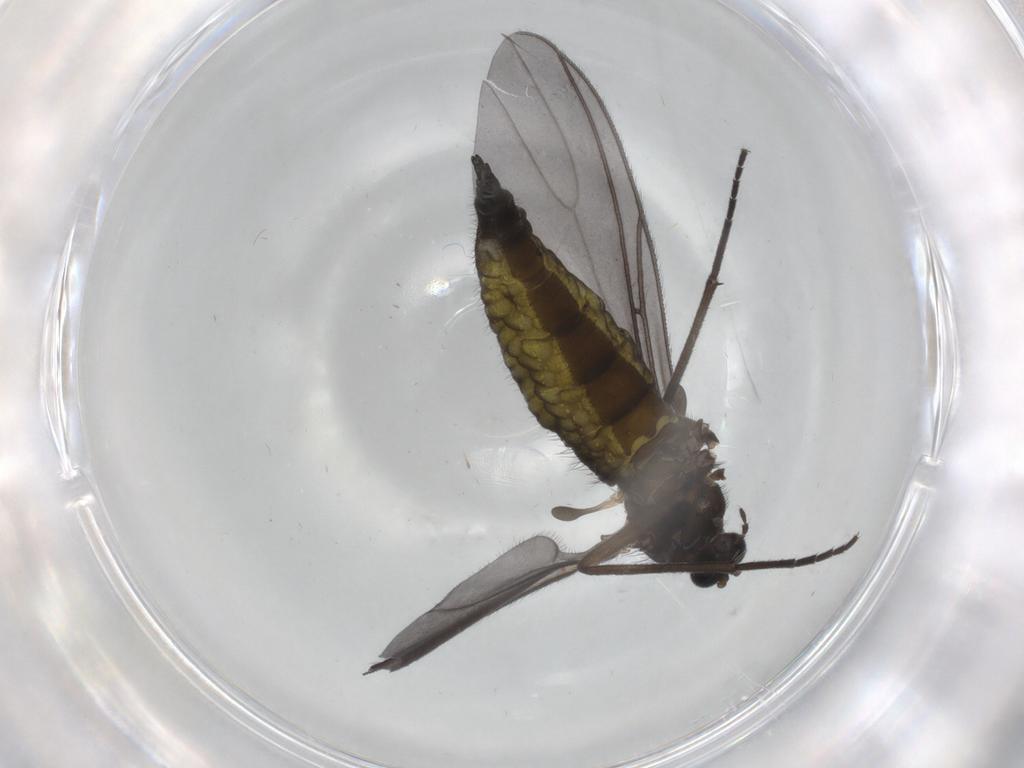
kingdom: Animalia
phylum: Arthropoda
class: Insecta
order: Diptera
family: Sciaridae
